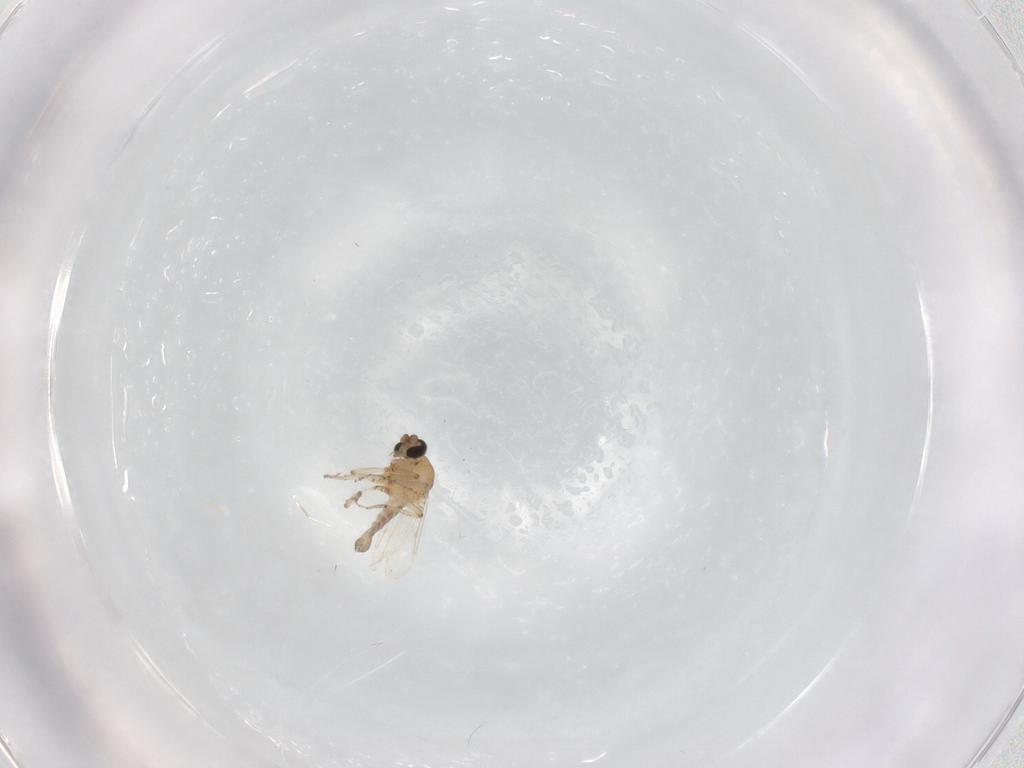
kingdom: Animalia
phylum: Arthropoda
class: Insecta
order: Diptera
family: Ceratopogonidae
